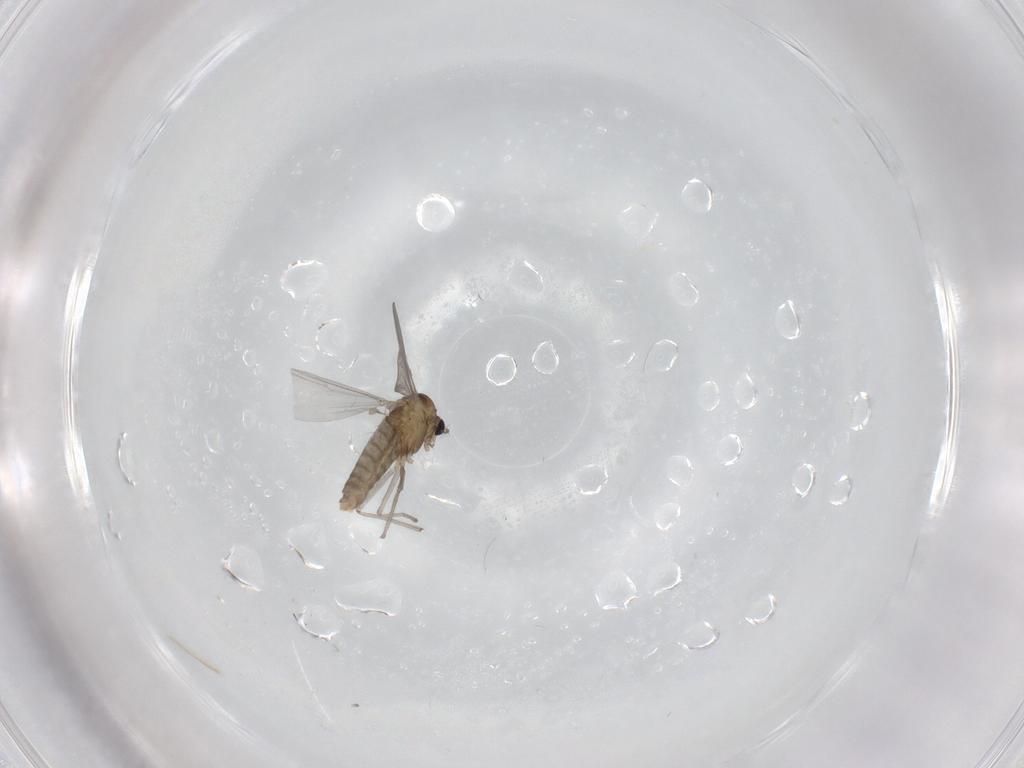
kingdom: Animalia
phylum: Arthropoda
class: Insecta
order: Diptera
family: Chironomidae
